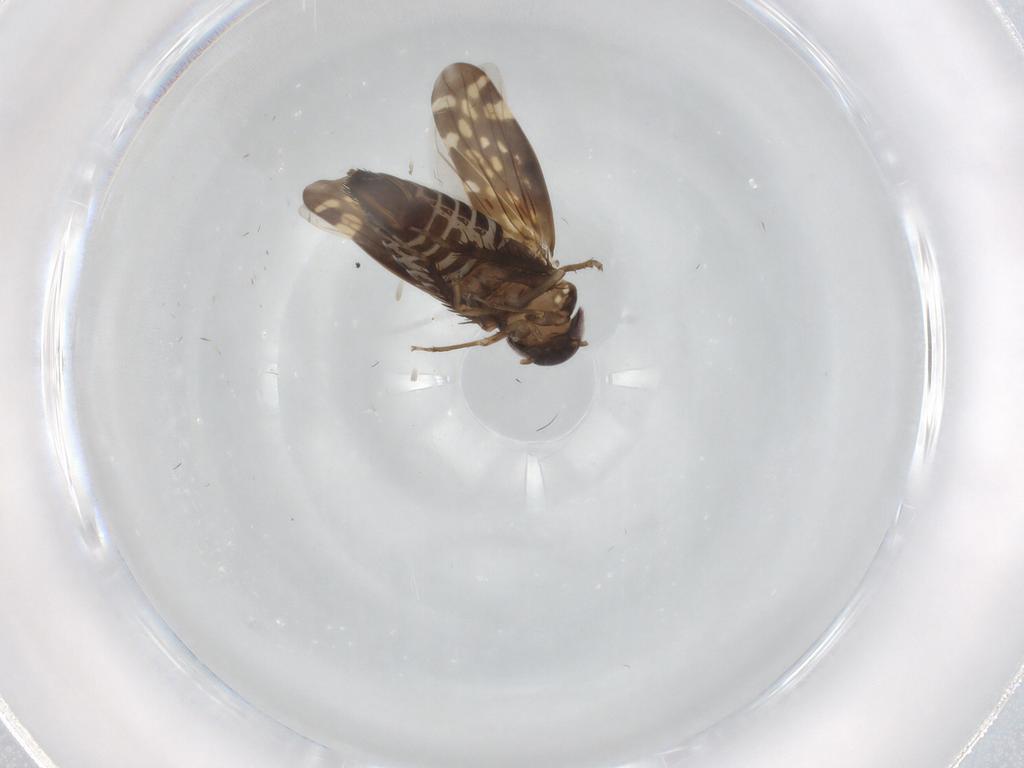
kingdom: Animalia
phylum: Arthropoda
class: Insecta
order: Hemiptera
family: Cicadellidae
